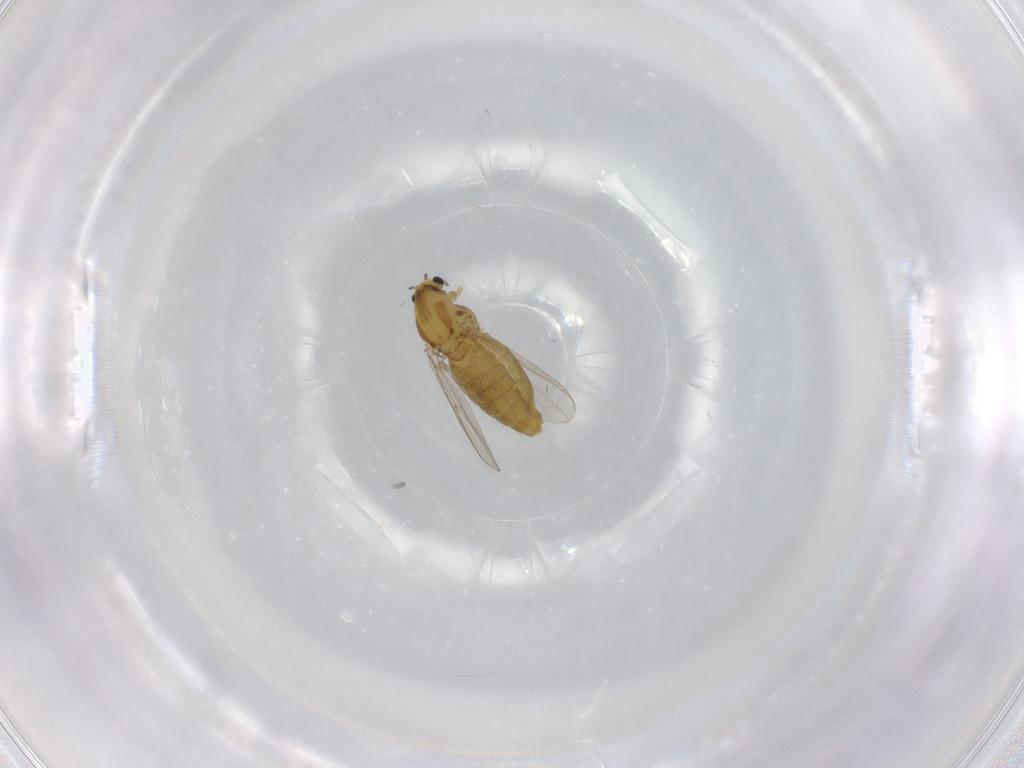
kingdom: Animalia
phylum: Arthropoda
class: Insecta
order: Diptera
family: Chironomidae
